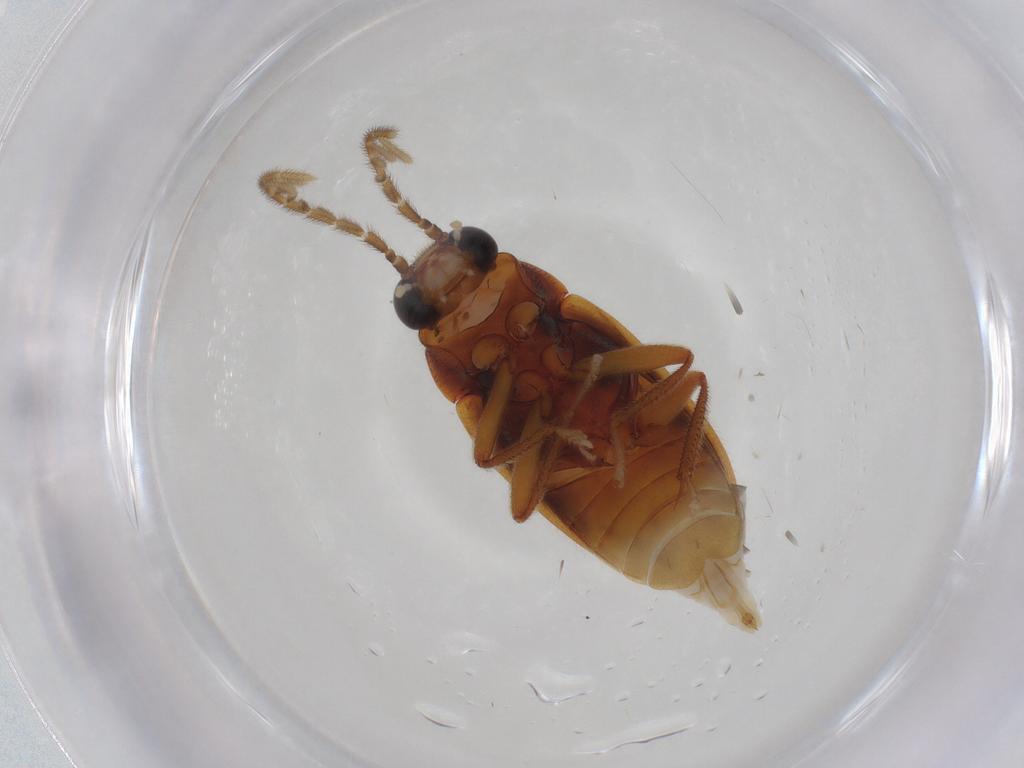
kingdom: Animalia
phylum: Arthropoda
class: Insecta
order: Coleoptera
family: Ptilodactylidae
